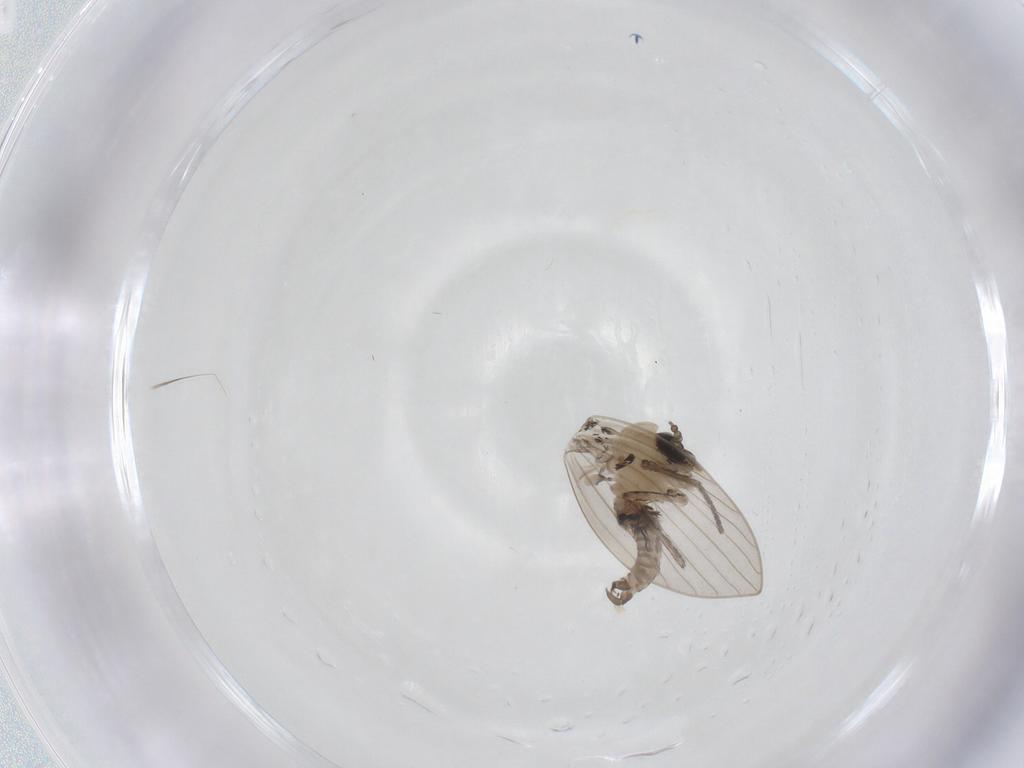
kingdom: Animalia
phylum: Arthropoda
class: Insecta
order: Diptera
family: Psychodidae
